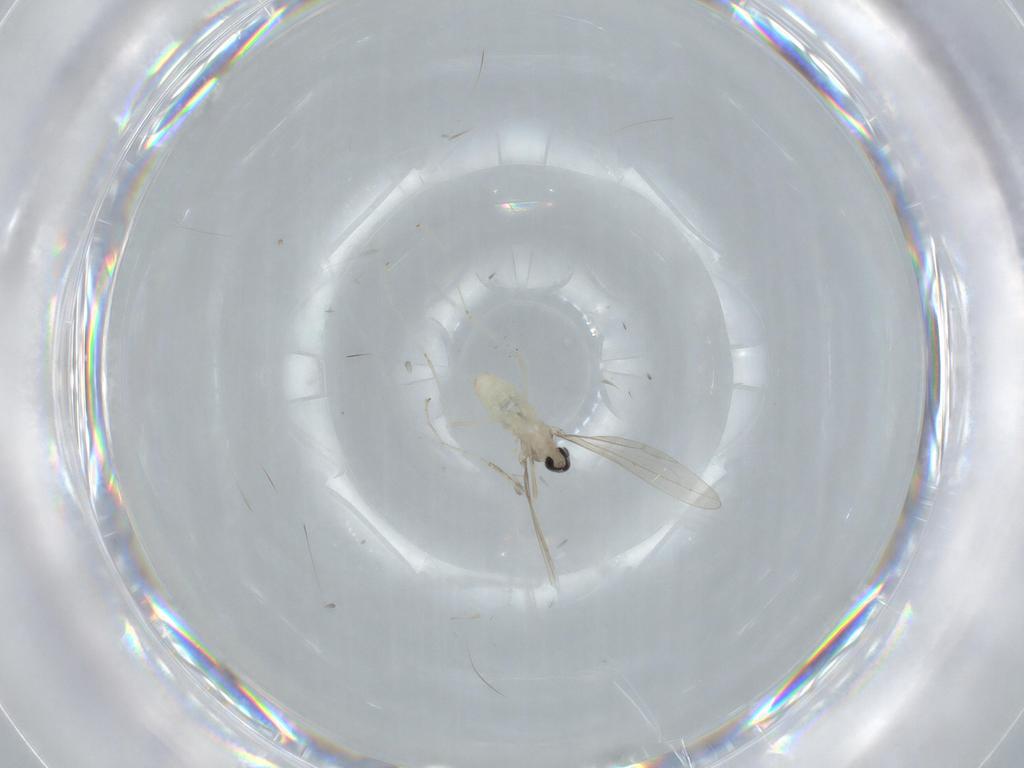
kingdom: Animalia
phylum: Arthropoda
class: Insecta
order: Diptera
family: Cecidomyiidae
